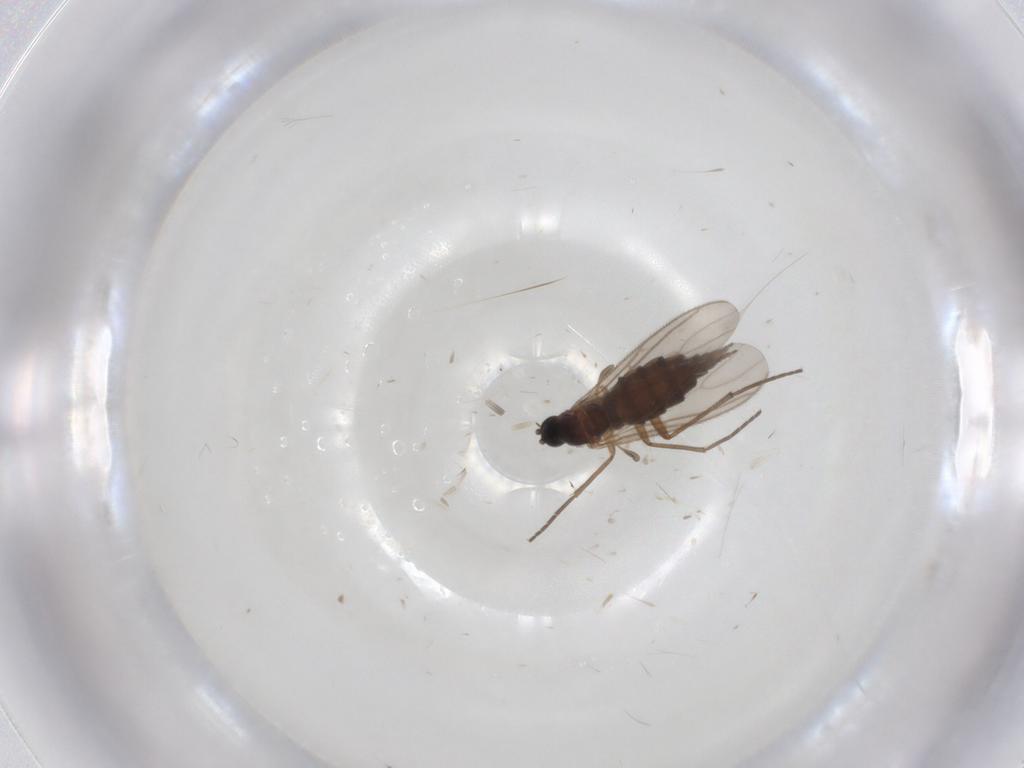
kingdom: Animalia
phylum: Arthropoda
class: Insecta
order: Diptera
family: Sciaridae
